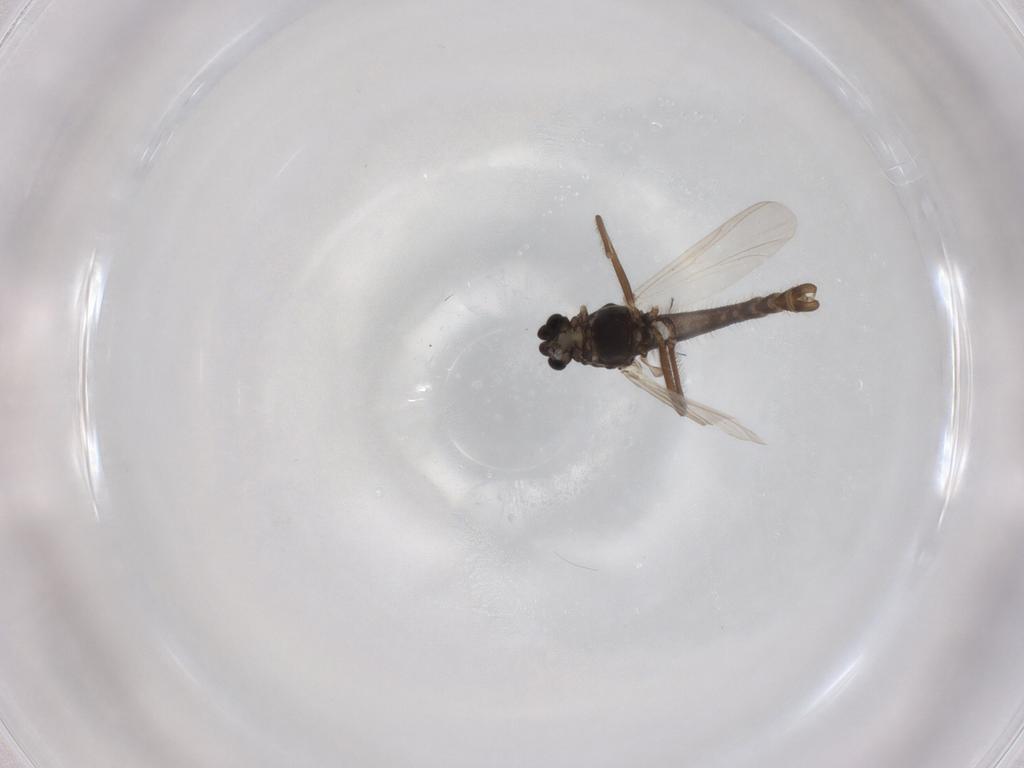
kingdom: Animalia
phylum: Arthropoda
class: Insecta
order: Diptera
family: Chironomidae
